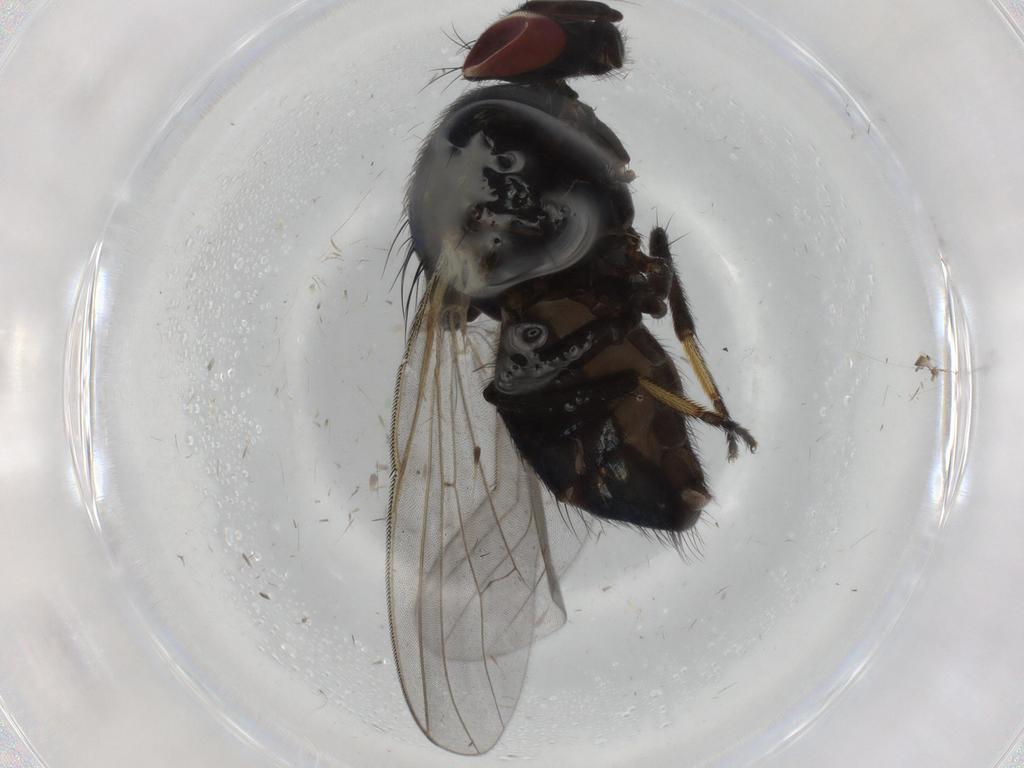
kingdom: Animalia
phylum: Arthropoda
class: Insecta
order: Diptera
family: Lonchaeidae
